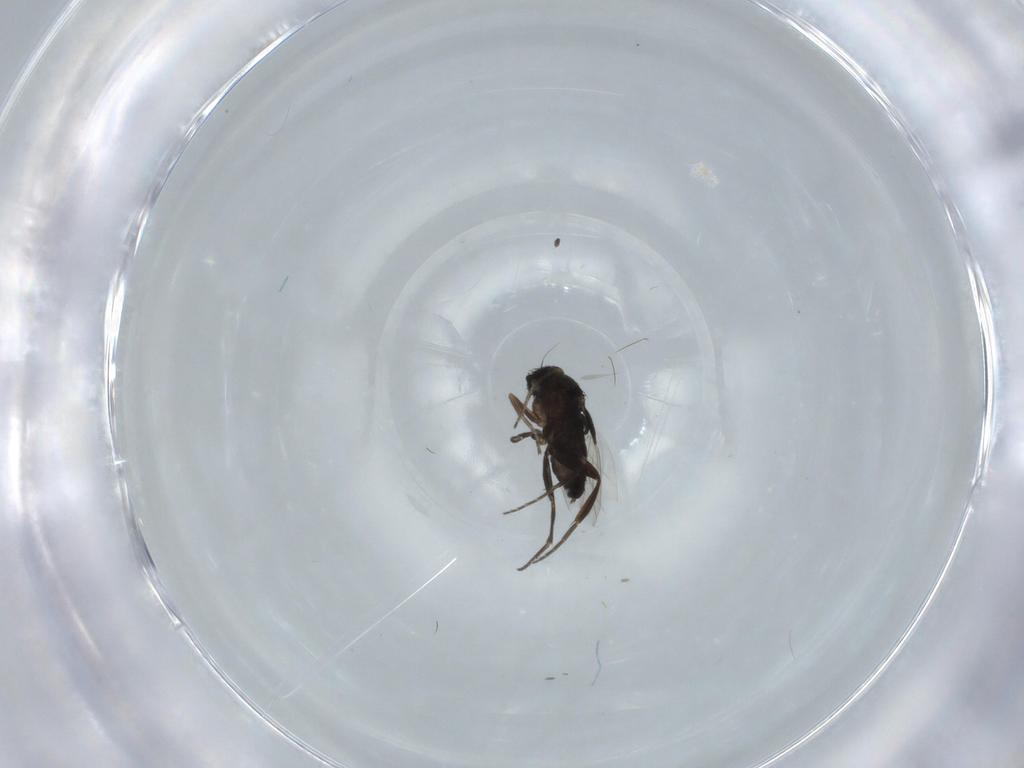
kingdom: Animalia
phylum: Arthropoda
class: Insecta
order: Diptera
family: Phoridae
